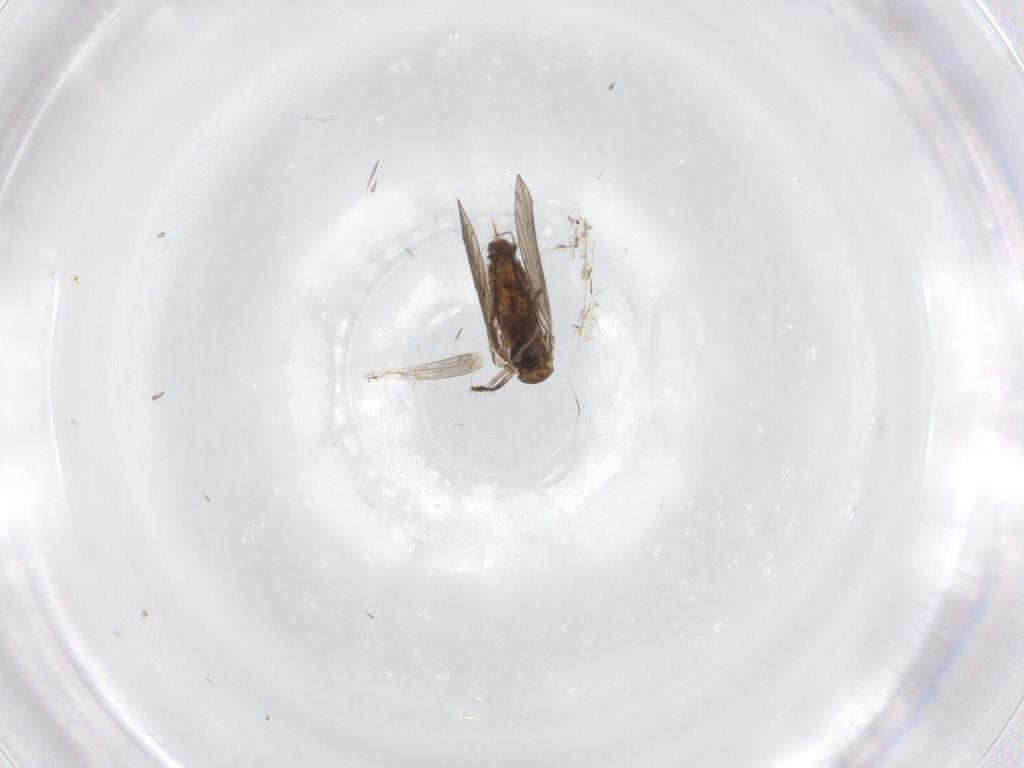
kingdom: Animalia
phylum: Arthropoda
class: Insecta
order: Diptera
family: Psychodidae
